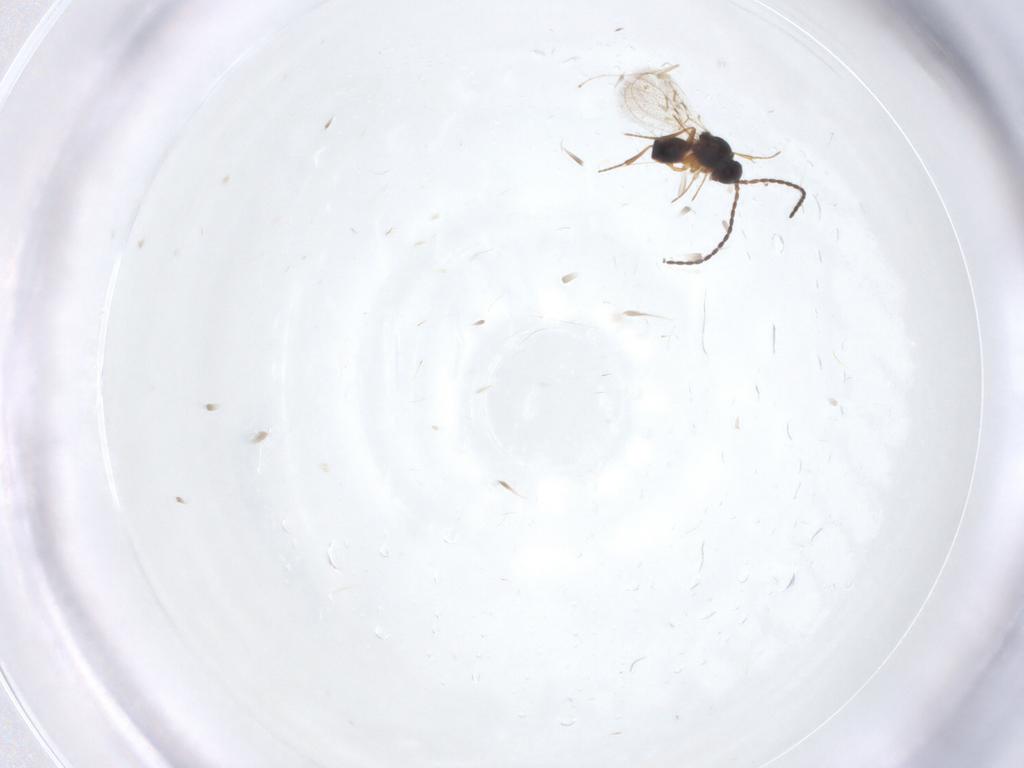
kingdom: Animalia
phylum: Arthropoda
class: Insecta
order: Hymenoptera
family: Figitidae
